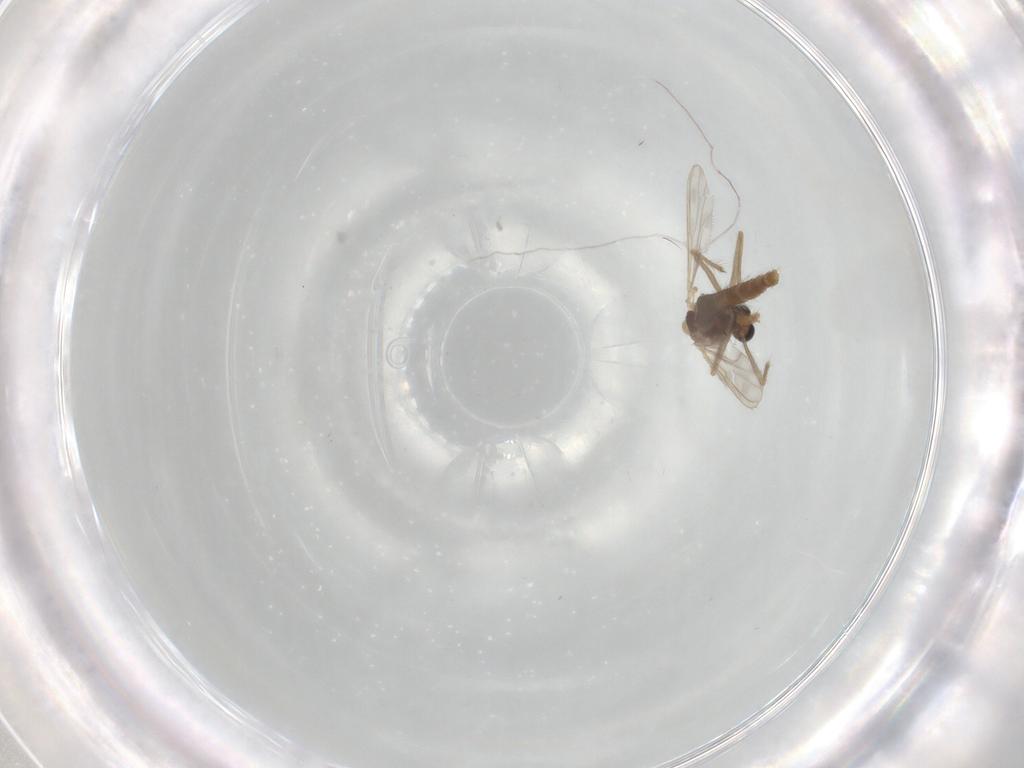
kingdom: Animalia
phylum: Arthropoda
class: Insecta
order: Diptera
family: Chironomidae
